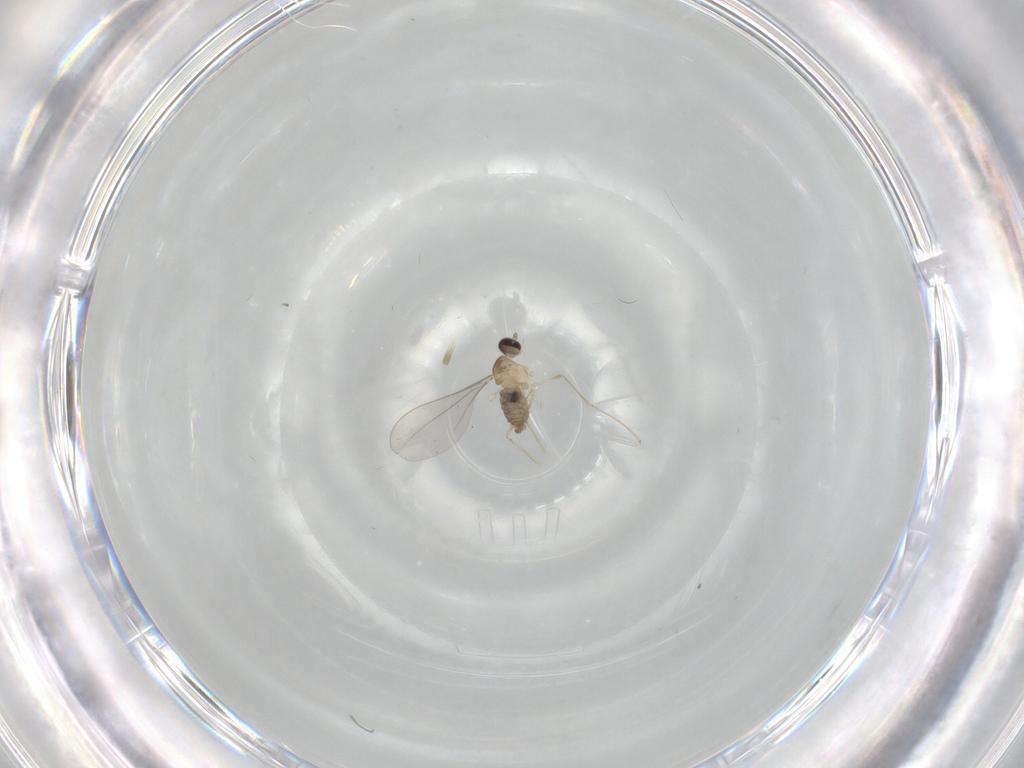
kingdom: Animalia
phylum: Arthropoda
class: Insecta
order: Diptera
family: Cecidomyiidae
